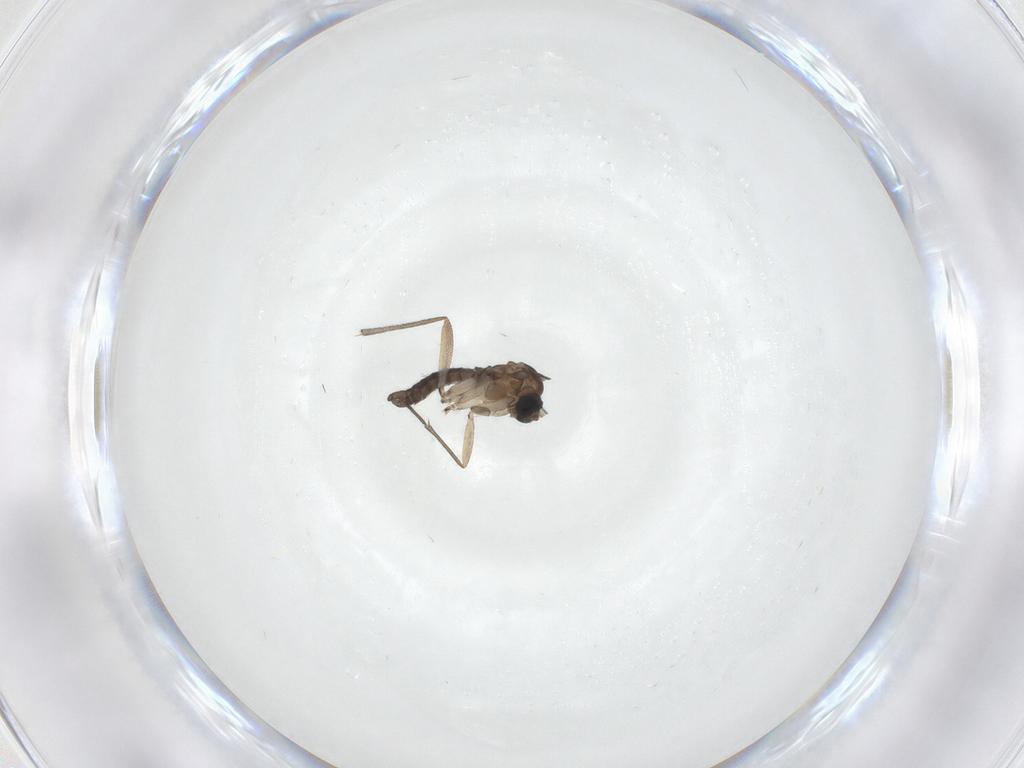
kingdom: Animalia
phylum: Arthropoda
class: Insecta
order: Diptera
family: Sciaridae
